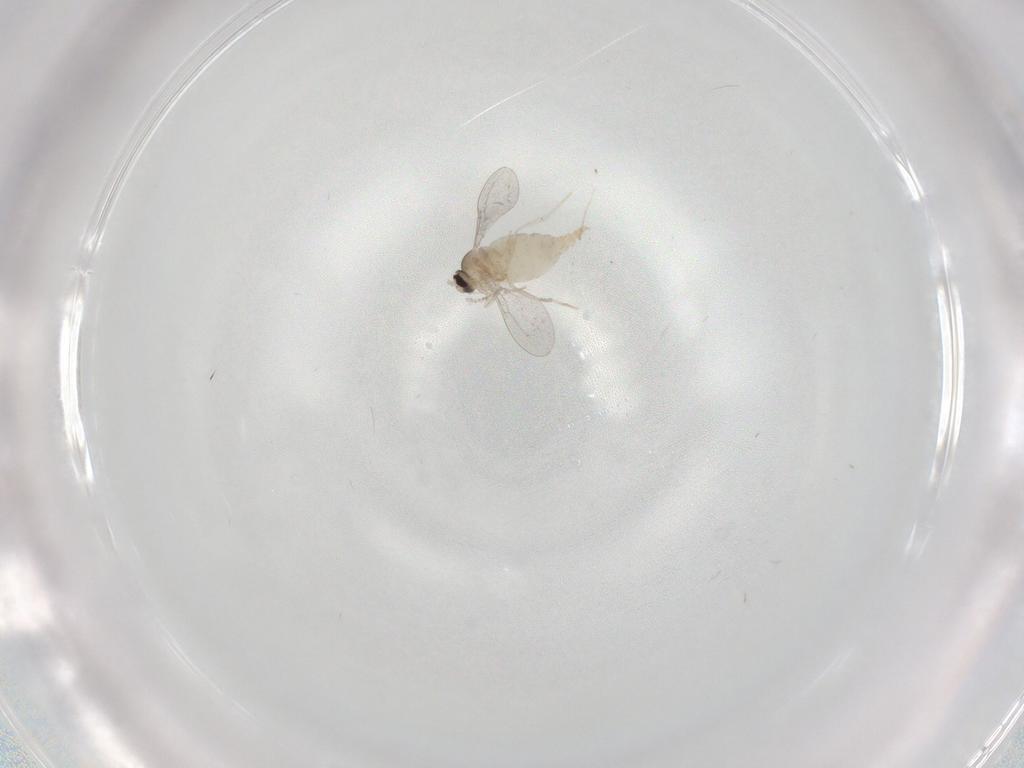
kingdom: Animalia
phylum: Arthropoda
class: Insecta
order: Diptera
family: Cecidomyiidae
